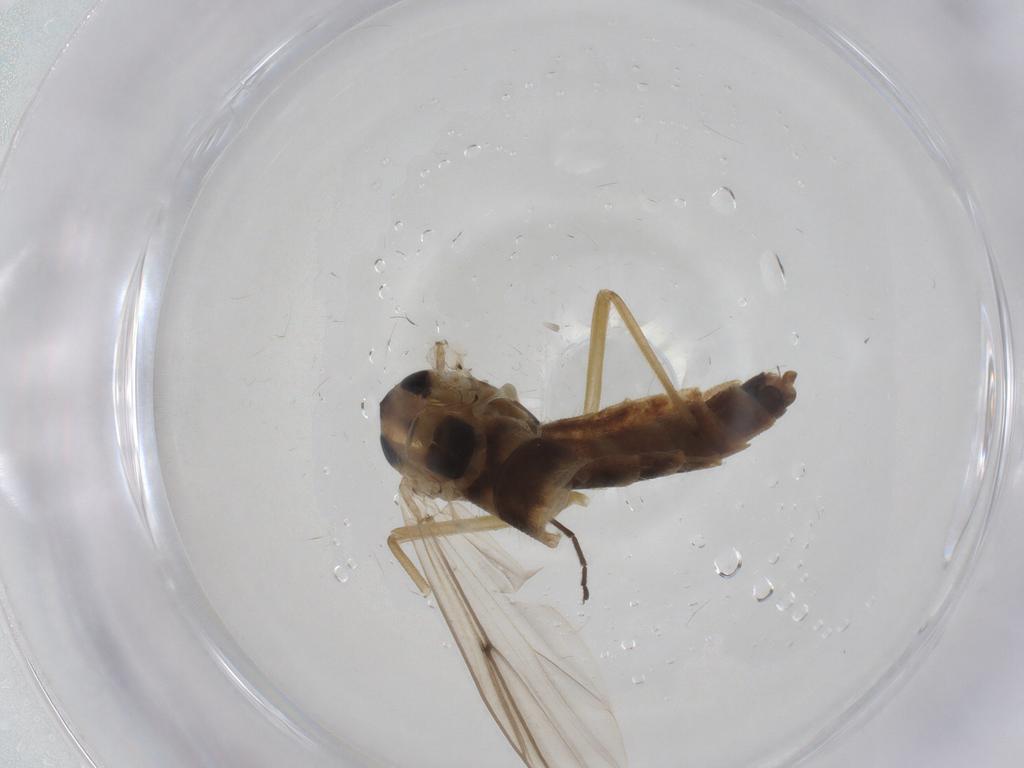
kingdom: Animalia
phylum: Arthropoda
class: Insecta
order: Diptera
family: Chironomidae
